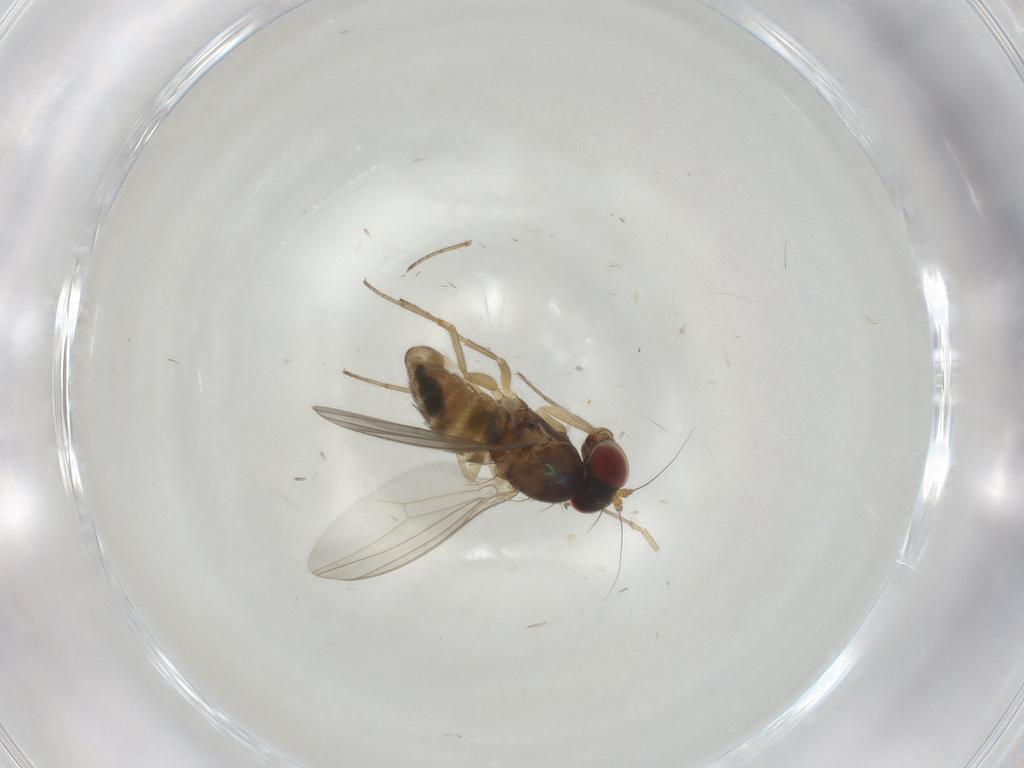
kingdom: Animalia
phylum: Arthropoda
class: Insecta
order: Diptera
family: Dolichopodidae
